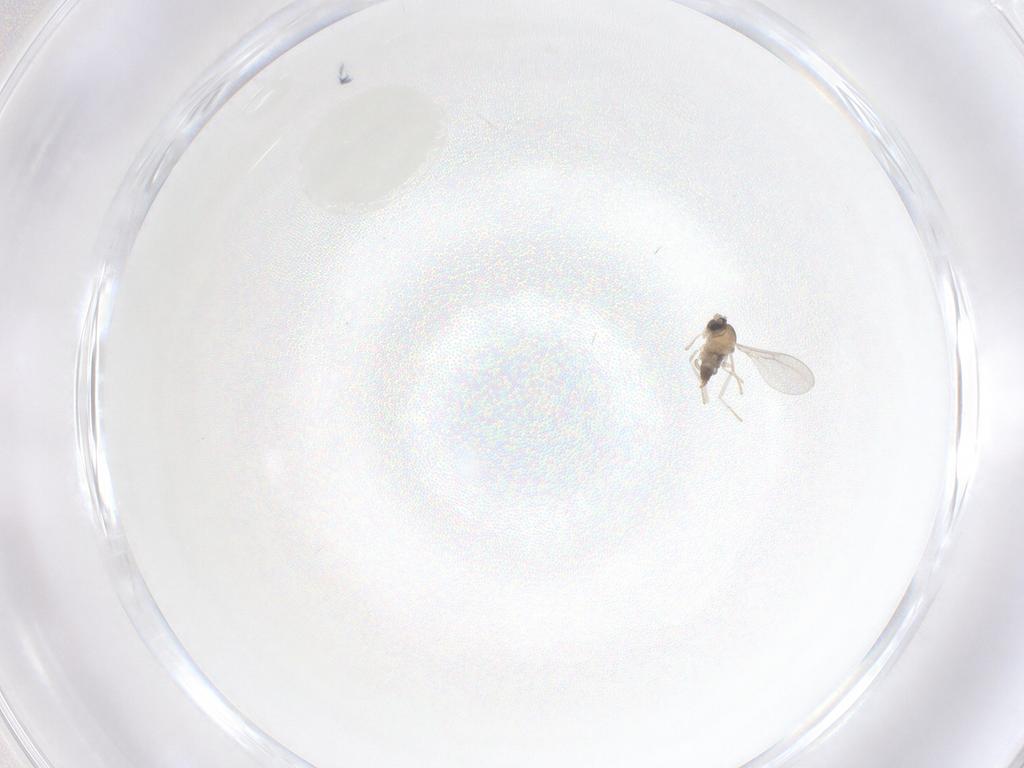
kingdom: Animalia
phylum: Arthropoda
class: Insecta
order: Diptera
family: Cecidomyiidae
